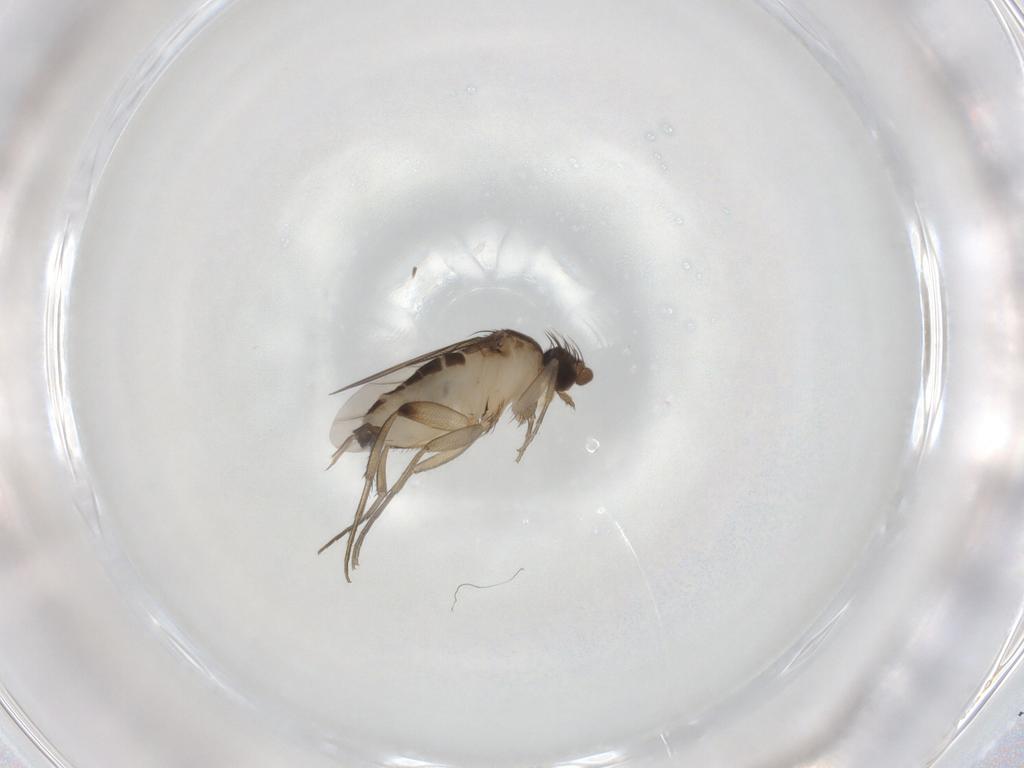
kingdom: Animalia
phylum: Arthropoda
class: Insecta
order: Diptera
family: Phoridae
